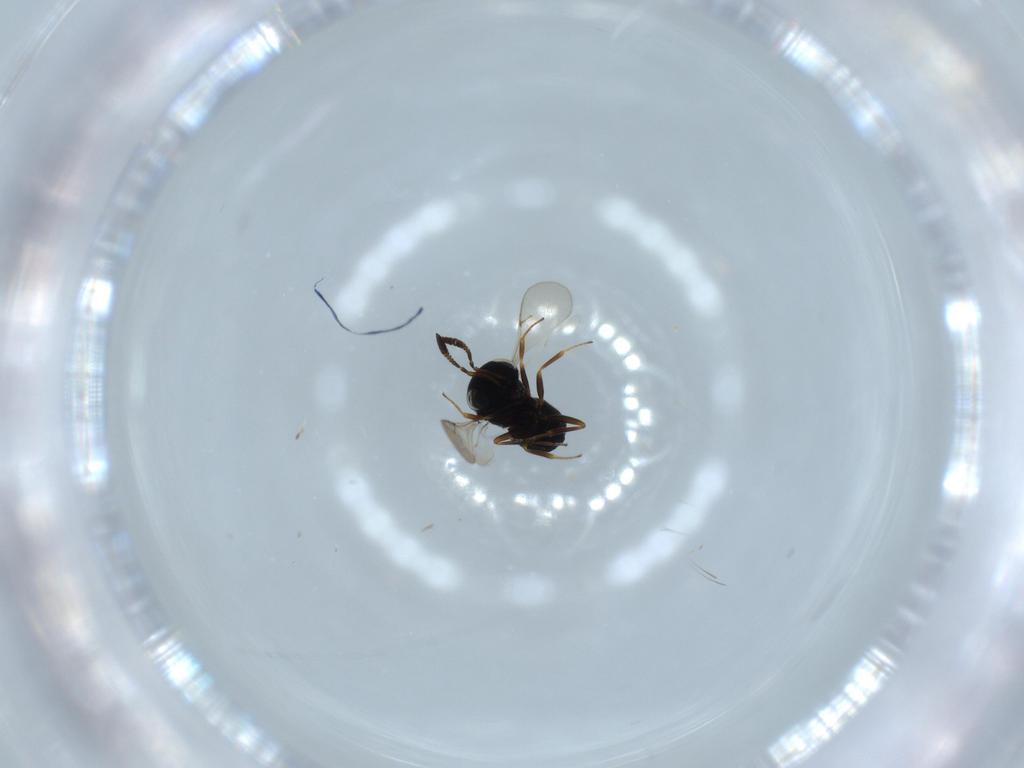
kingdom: Animalia
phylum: Arthropoda
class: Insecta
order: Hymenoptera
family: Scelionidae
